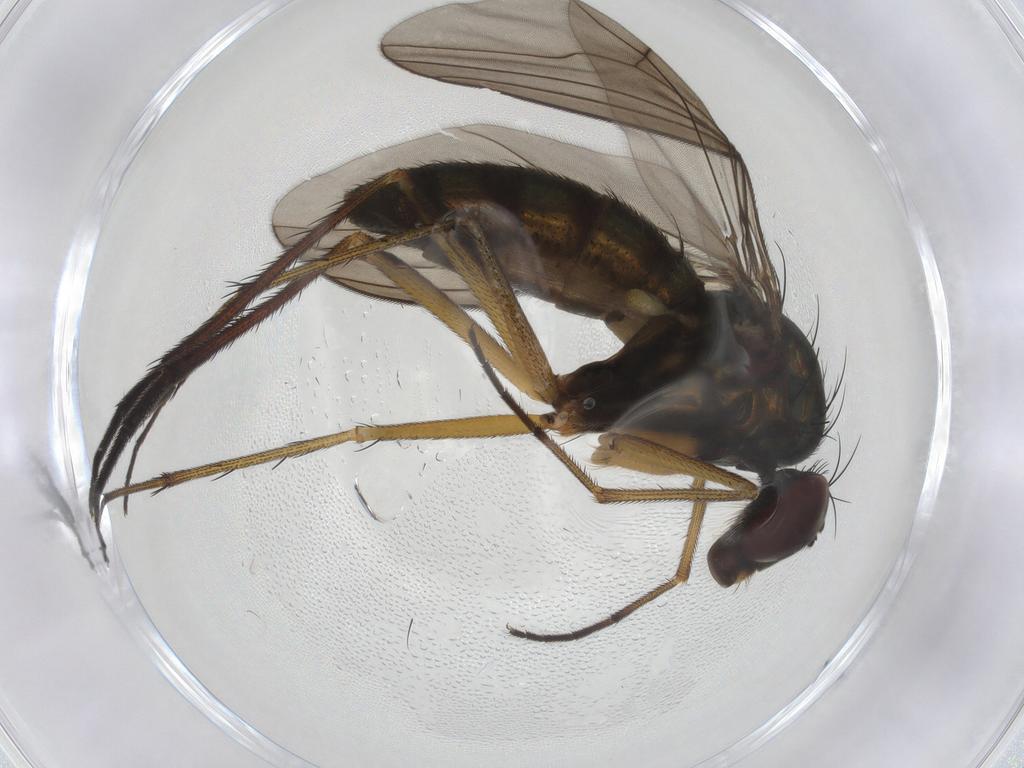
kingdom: Animalia
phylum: Arthropoda
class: Insecta
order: Diptera
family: Dolichopodidae
